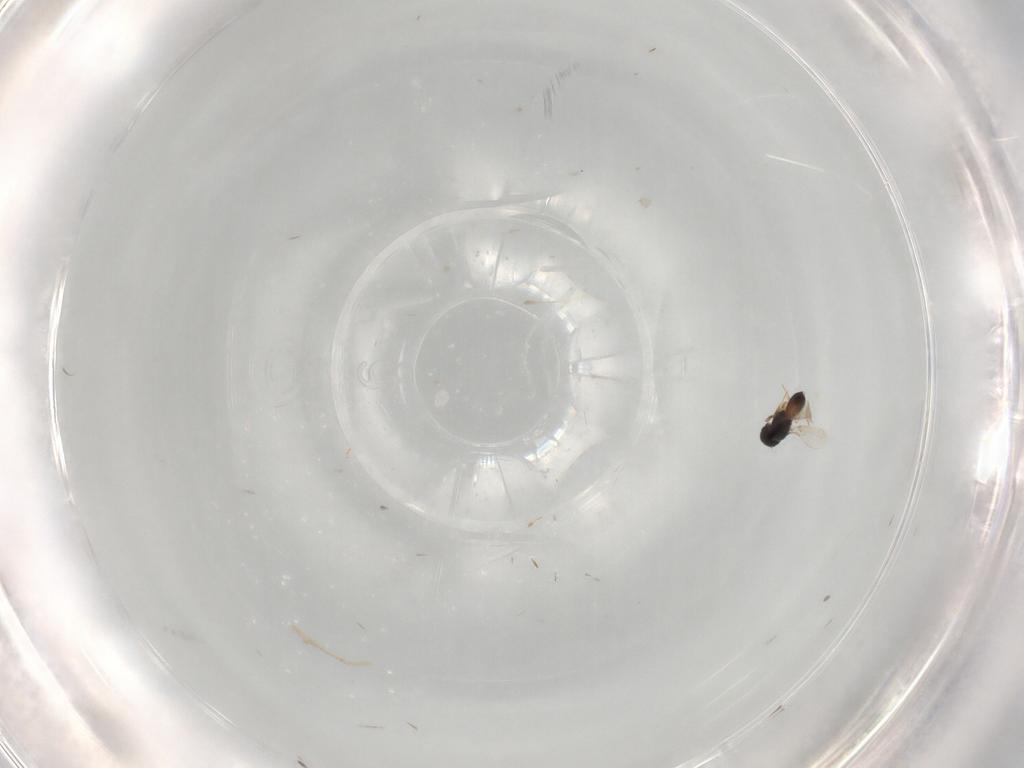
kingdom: Animalia
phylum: Arthropoda
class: Insecta
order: Hymenoptera
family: Scelionidae
